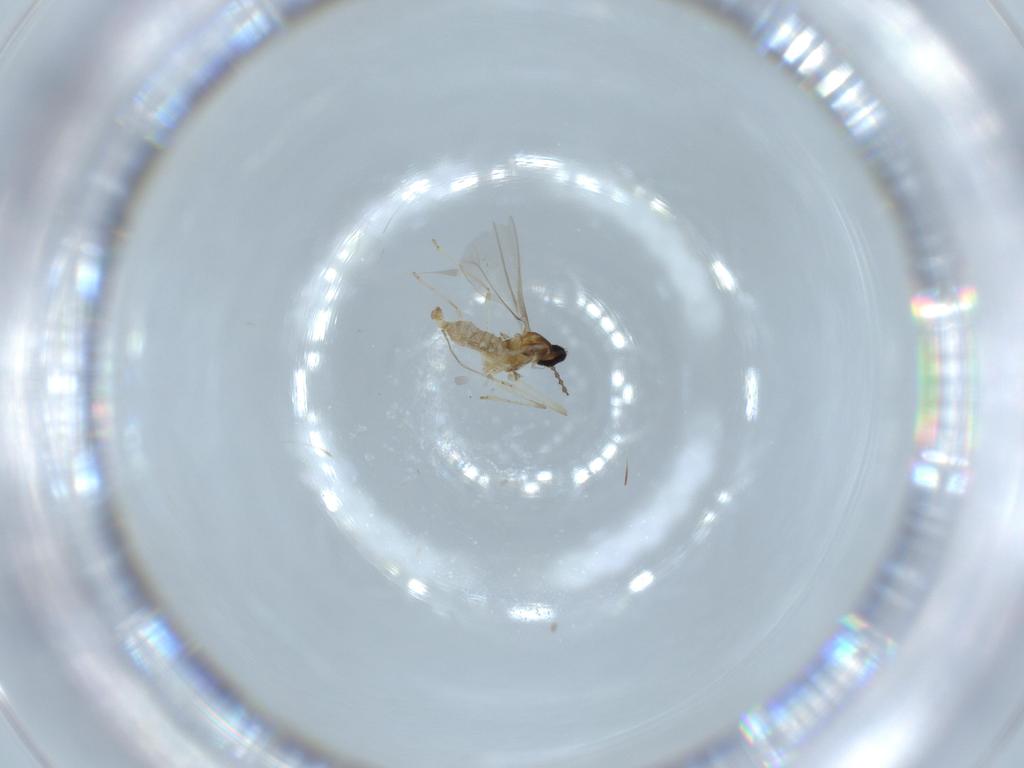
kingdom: Animalia
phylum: Arthropoda
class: Insecta
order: Diptera
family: Cecidomyiidae
